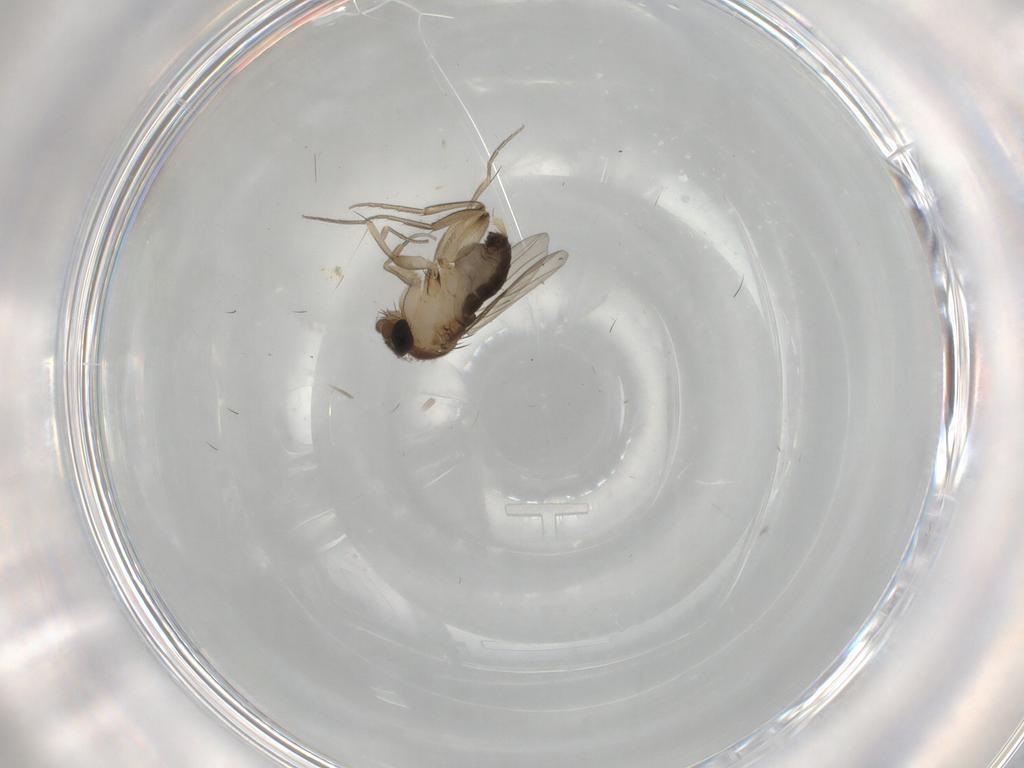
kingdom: Animalia
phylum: Arthropoda
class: Insecta
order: Diptera
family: Phoridae
